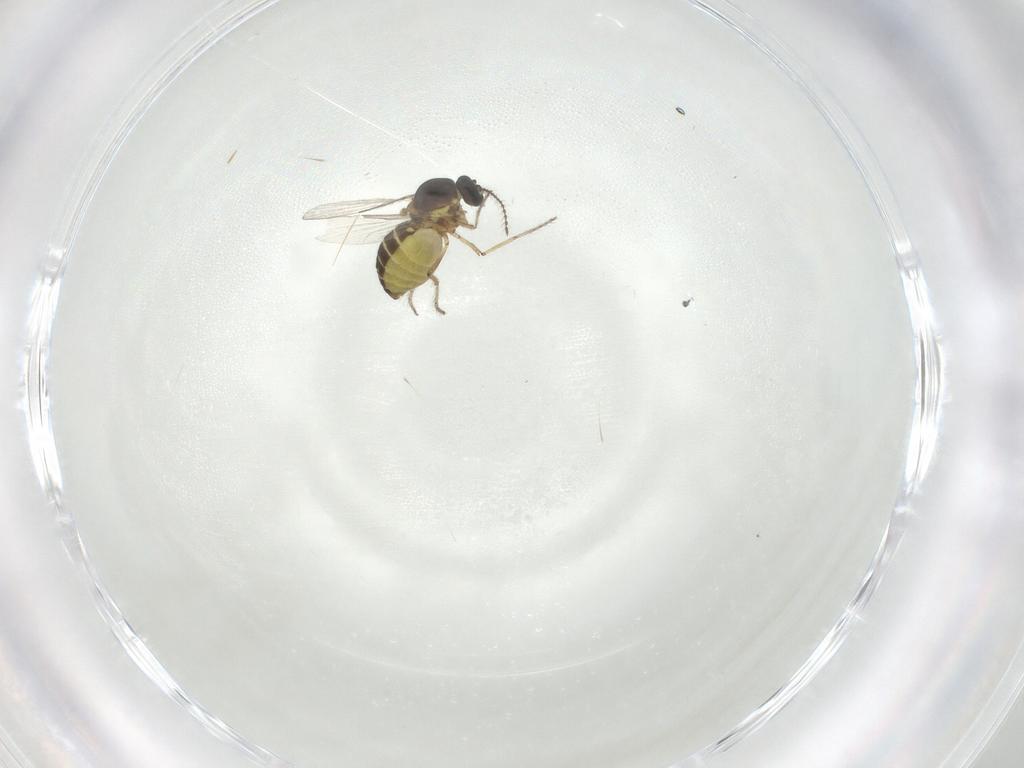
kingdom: Animalia
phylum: Arthropoda
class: Insecta
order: Diptera
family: Ceratopogonidae
